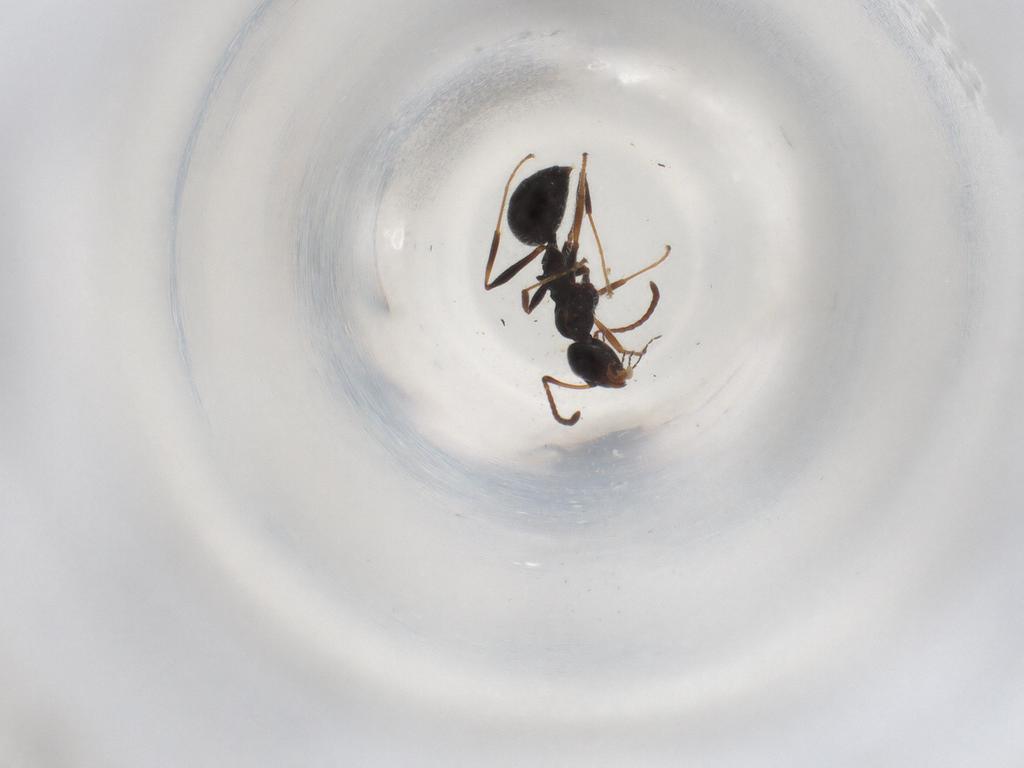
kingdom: Animalia
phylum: Arthropoda
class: Insecta
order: Hymenoptera
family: Formicidae
